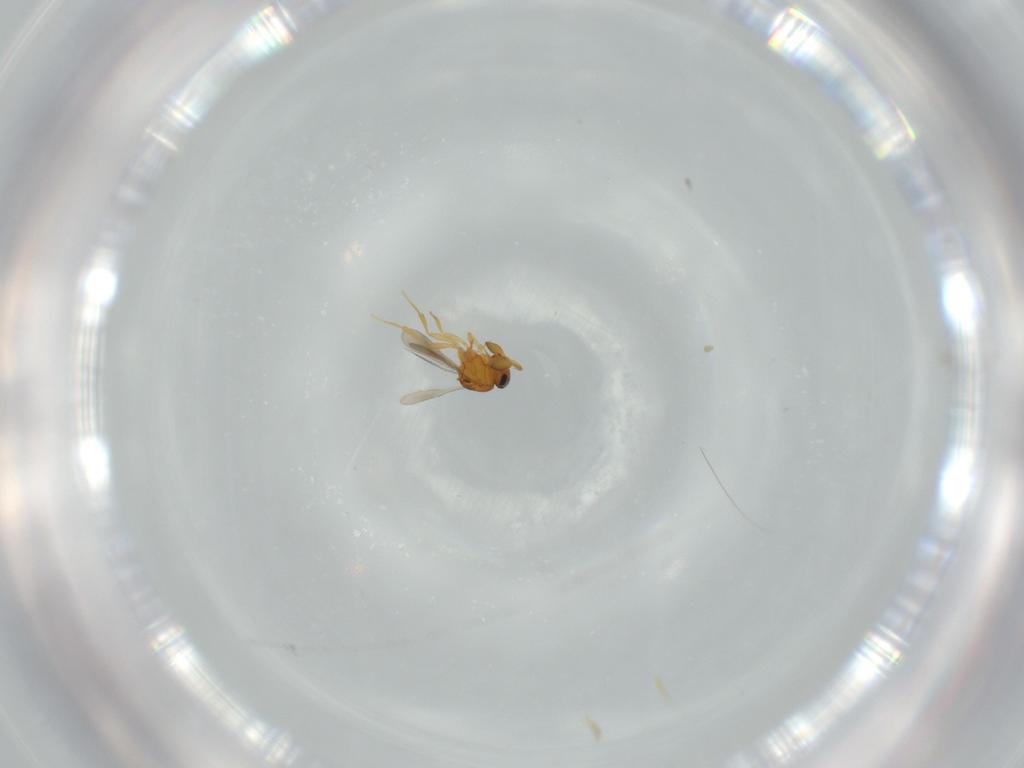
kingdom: Animalia
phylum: Arthropoda
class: Insecta
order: Hymenoptera
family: Scelionidae
